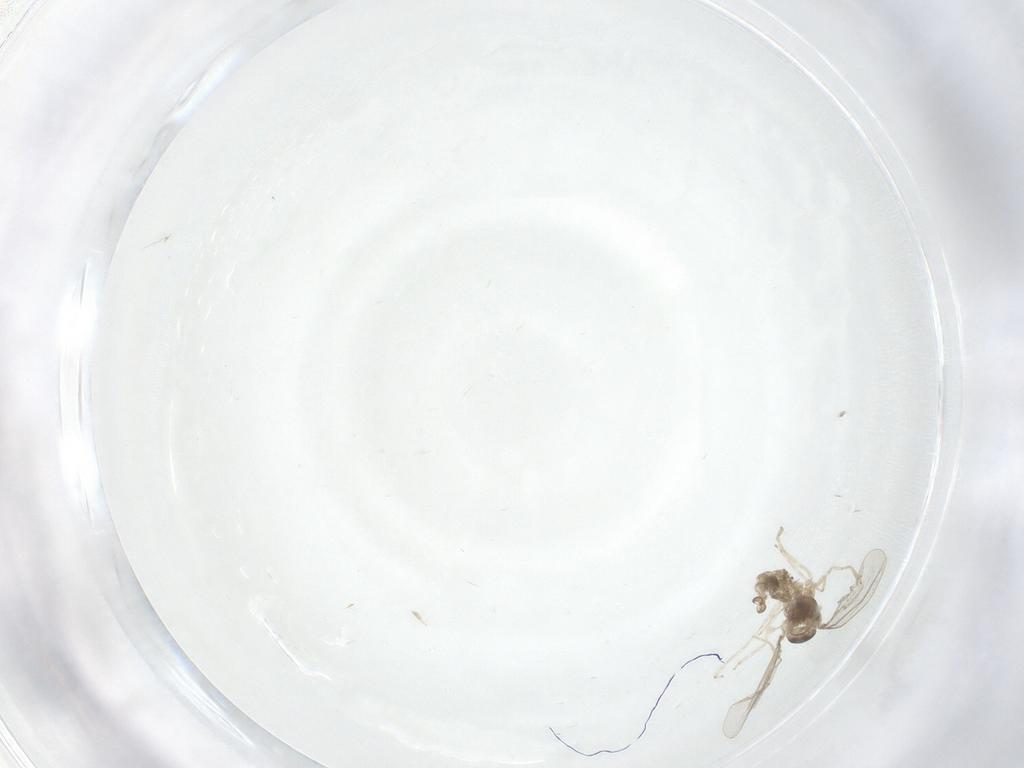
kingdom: Animalia
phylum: Arthropoda
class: Insecta
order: Diptera
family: Cecidomyiidae
